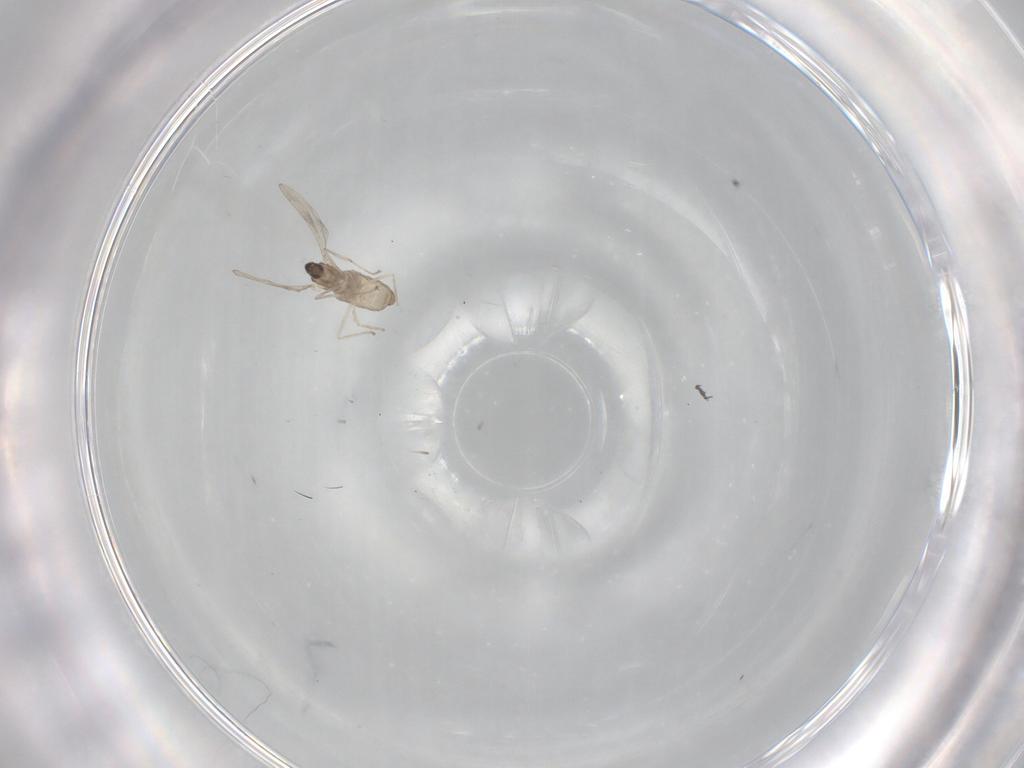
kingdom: Animalia
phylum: Arthropoda
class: Insecta
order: Diptera
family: Cecidomyiidae
